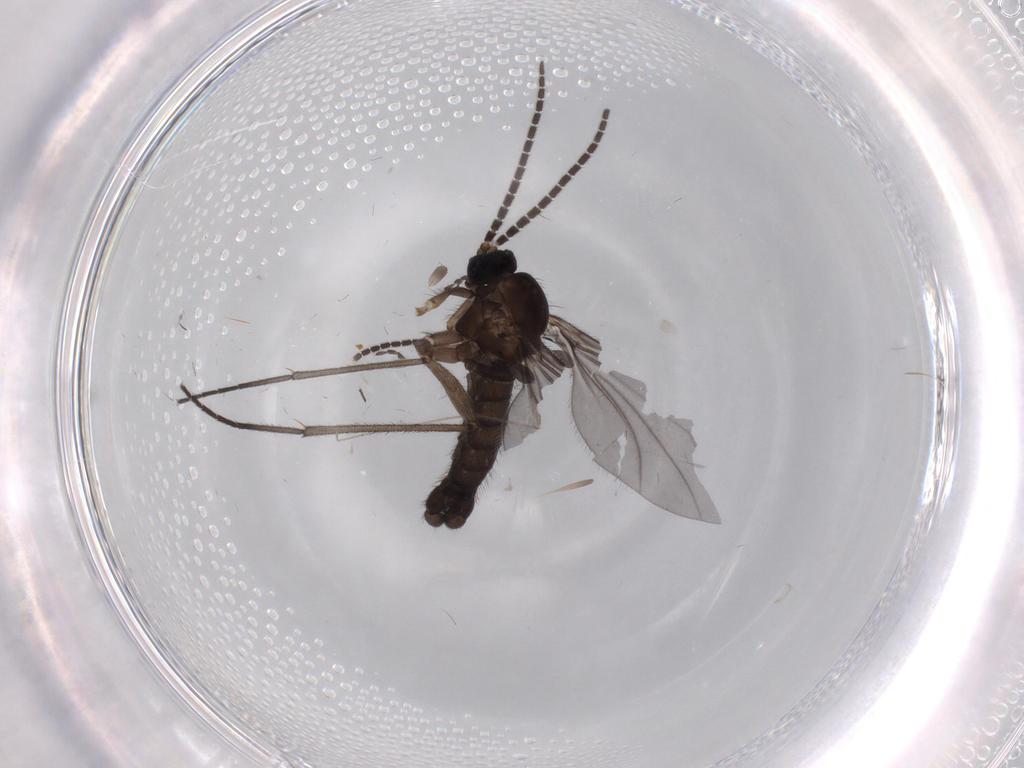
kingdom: Animalia
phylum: Arthropoda
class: Insecta
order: Diptera
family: Sciaridae
